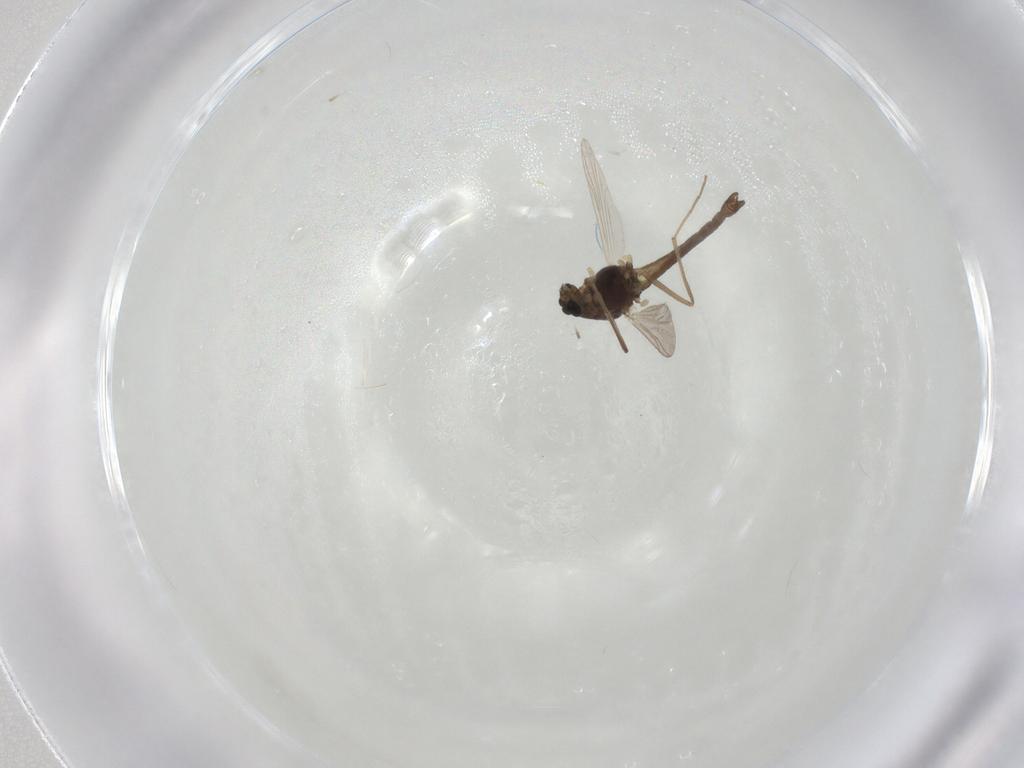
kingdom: Animalia
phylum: Arthropoda
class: Insecta
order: Diptera
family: Chironomidae
